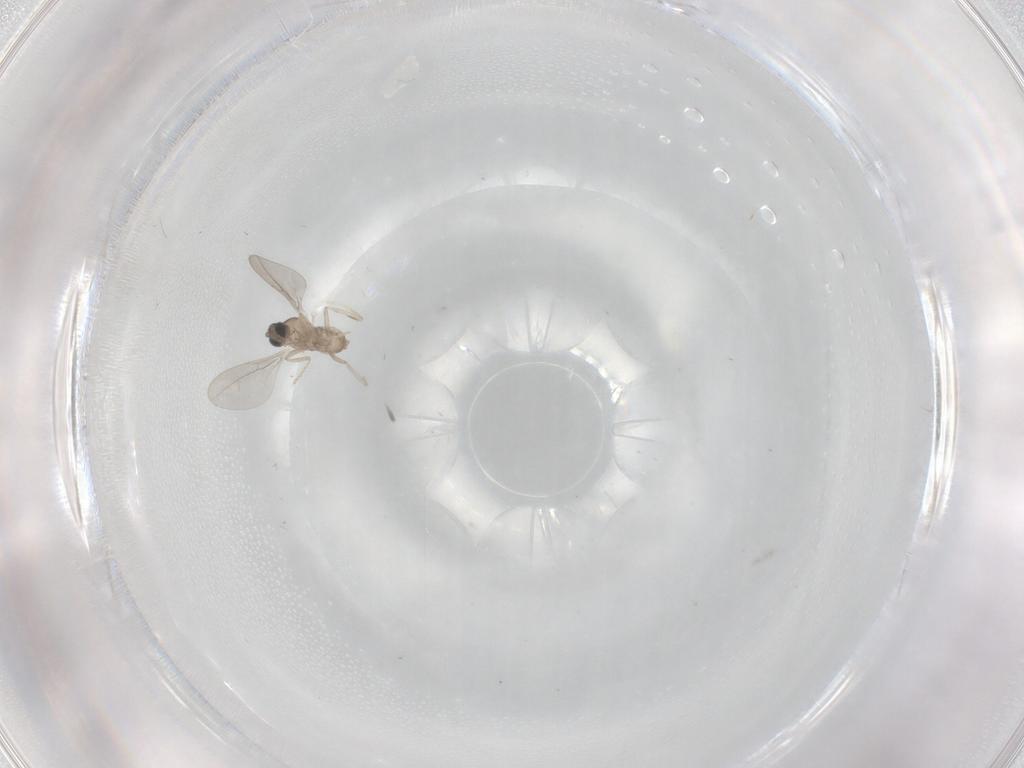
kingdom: Animalia
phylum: Arthropoda
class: Insecta
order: Diptera
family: Cecidomyiidae
